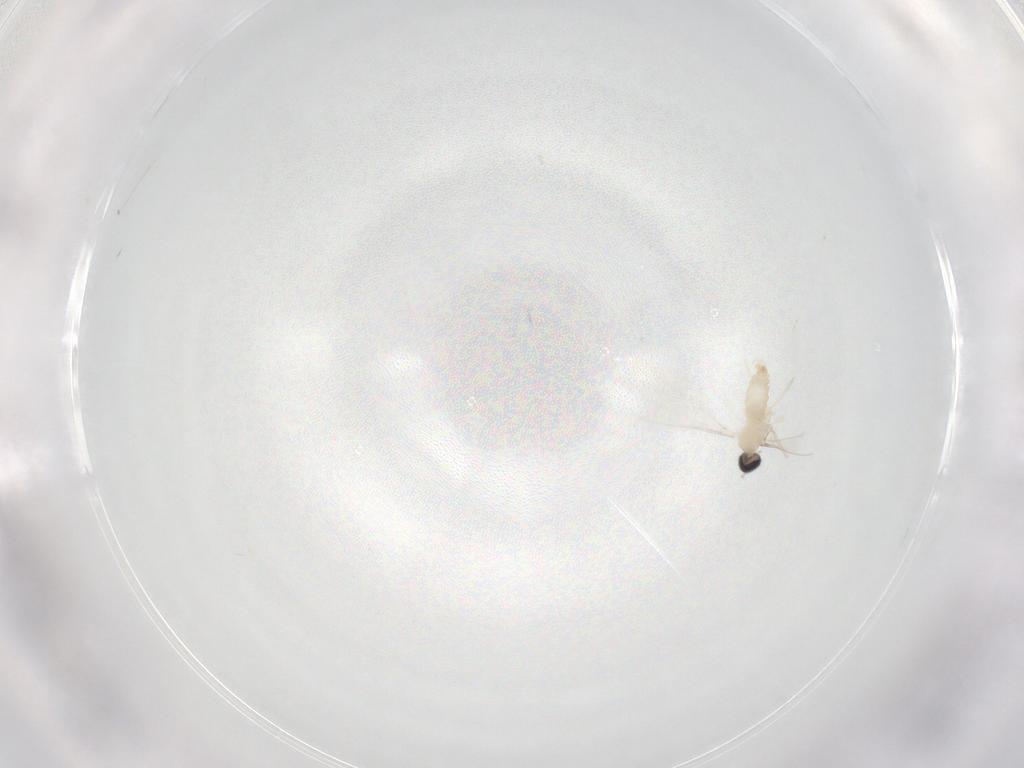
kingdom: Animalia
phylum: Arthropoda
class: Insecta
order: Diptera
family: Cecidomyiidae
